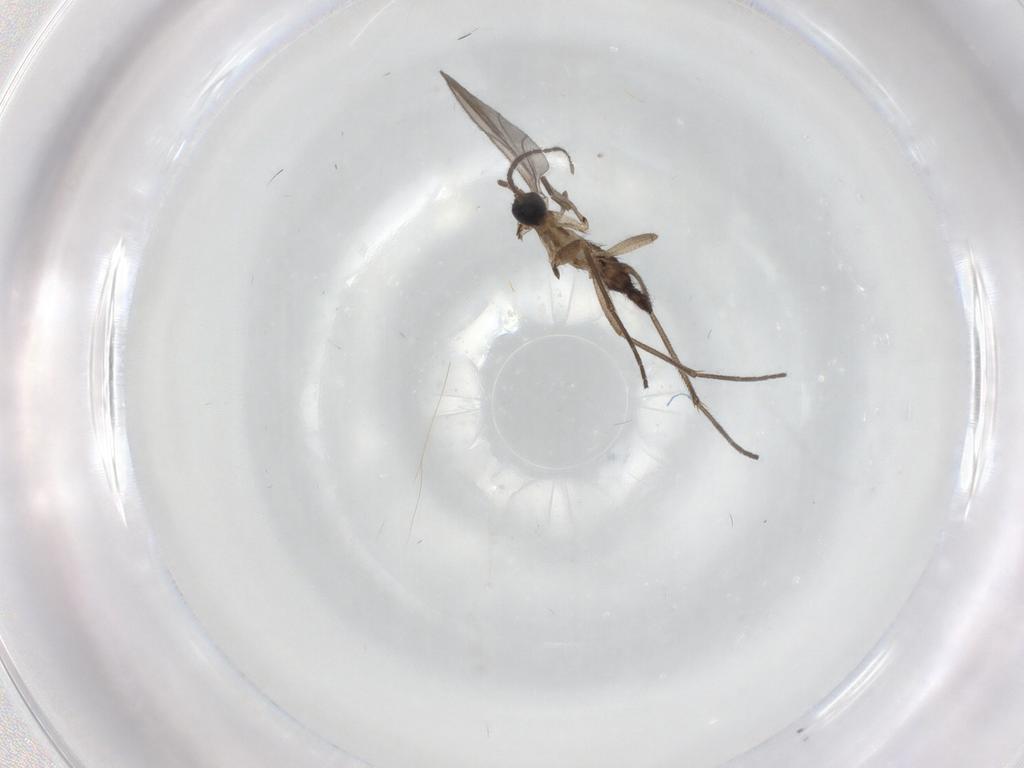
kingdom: Animalia
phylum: Arthropoda
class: Insecta
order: Diptera
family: Sciaridae
